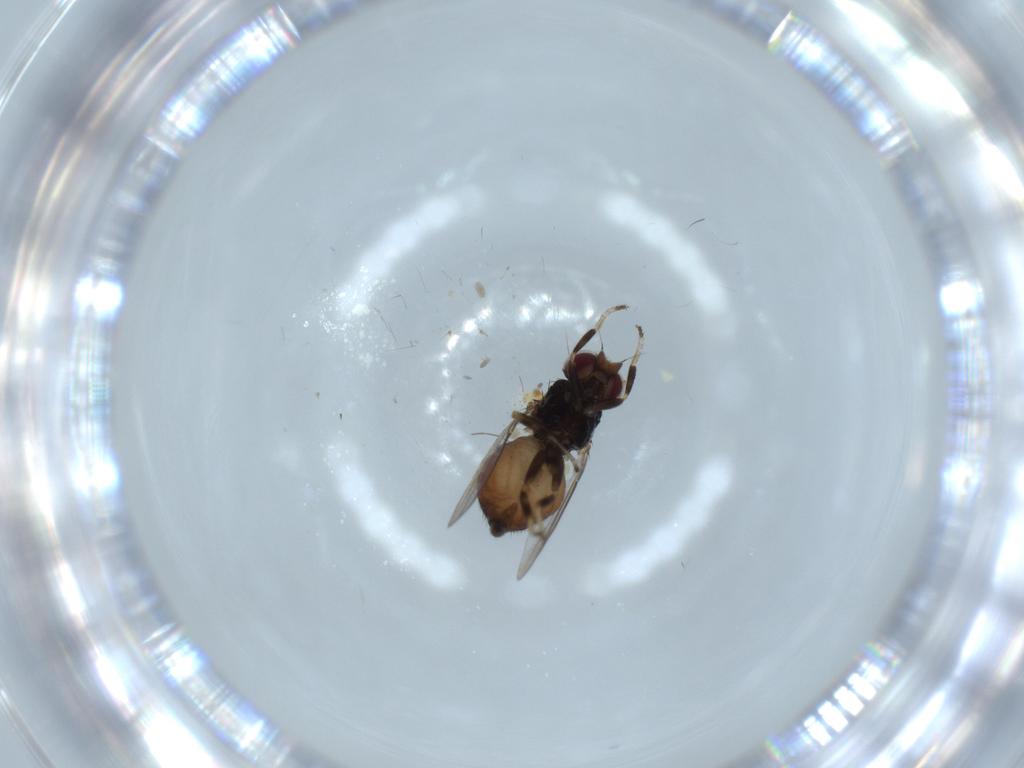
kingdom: Animalia
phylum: Arthropoda
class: Insecta
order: Diptera
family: Chloropidae
